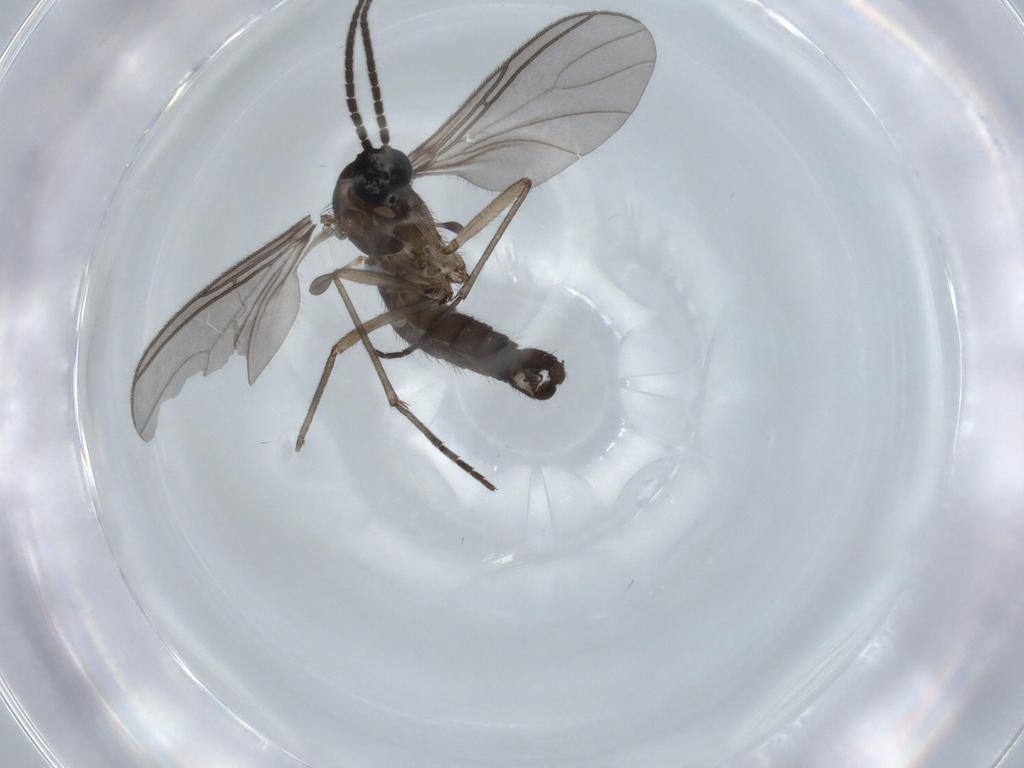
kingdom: Animalia
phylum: Arthropoda
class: Insecta
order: Diptera
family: Sciaridae
